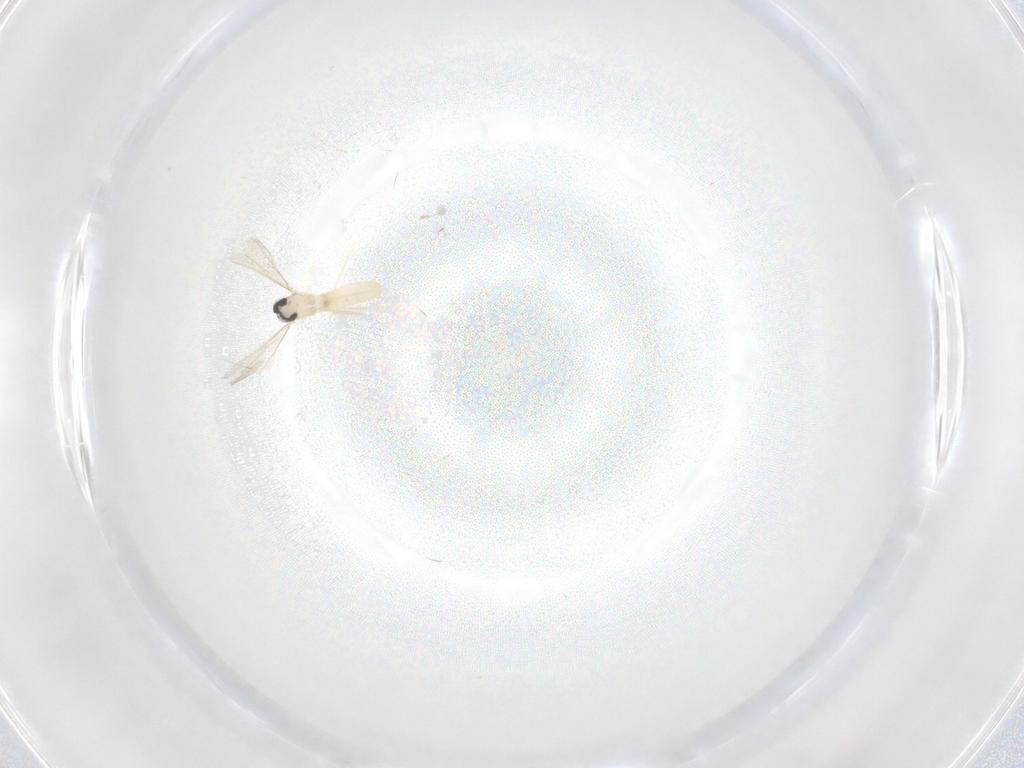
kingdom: Animalia
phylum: Arthropoda
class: Insecta
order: Diptera
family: Cecidomyiidae
